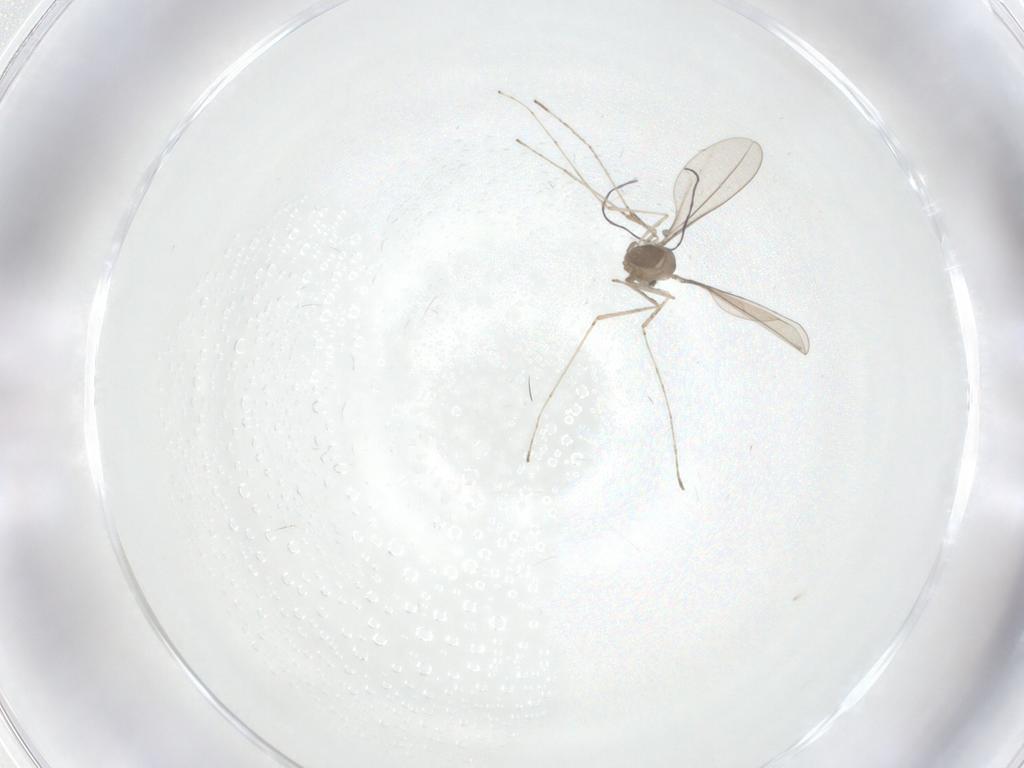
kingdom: Animalia
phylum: Arthropoda
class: Insecta
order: Diptera
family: Phoridae
